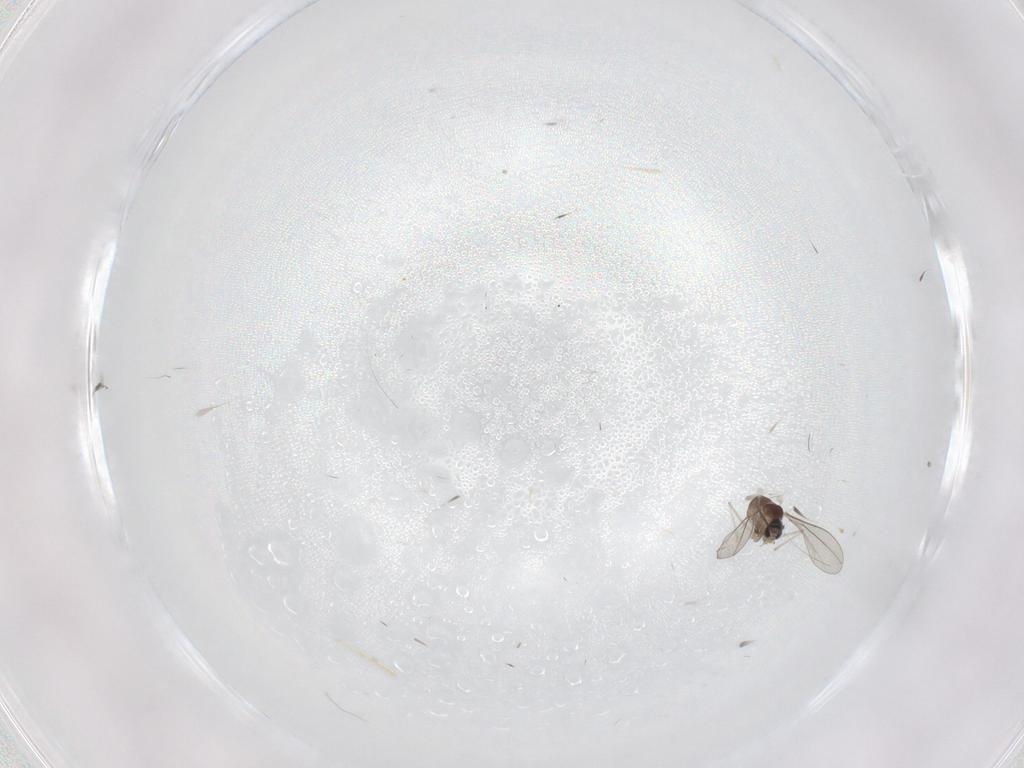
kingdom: Animalia
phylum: Arthropoda
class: Insecta
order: Diptera
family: Cecidomyiidae
